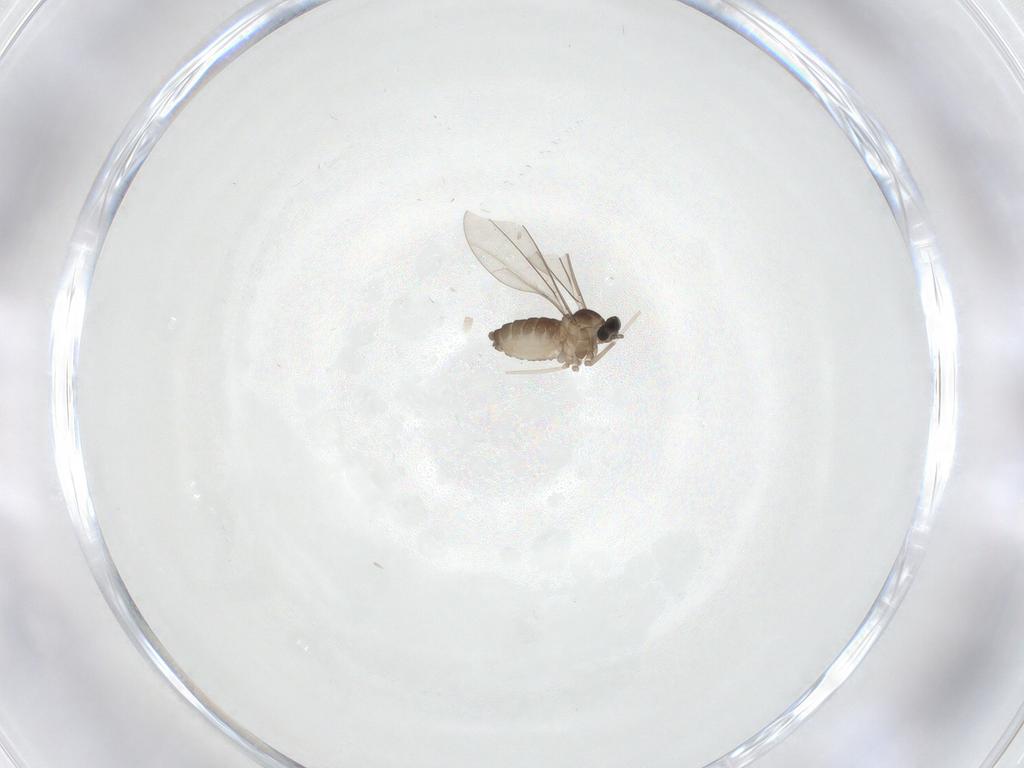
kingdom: Animalia
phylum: Arthropoda
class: Insecta
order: Diptera
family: Cecidomyiidae
